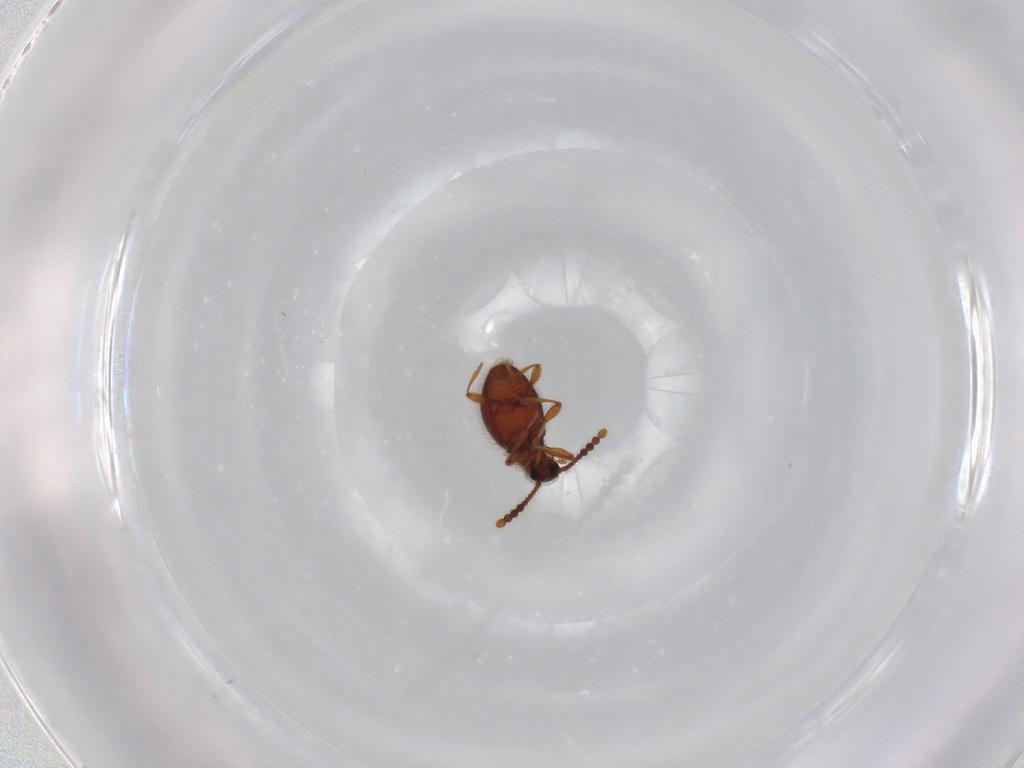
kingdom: Animalia
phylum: Arthropoda
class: Insecta
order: Coleoptera
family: Staphylinidae
